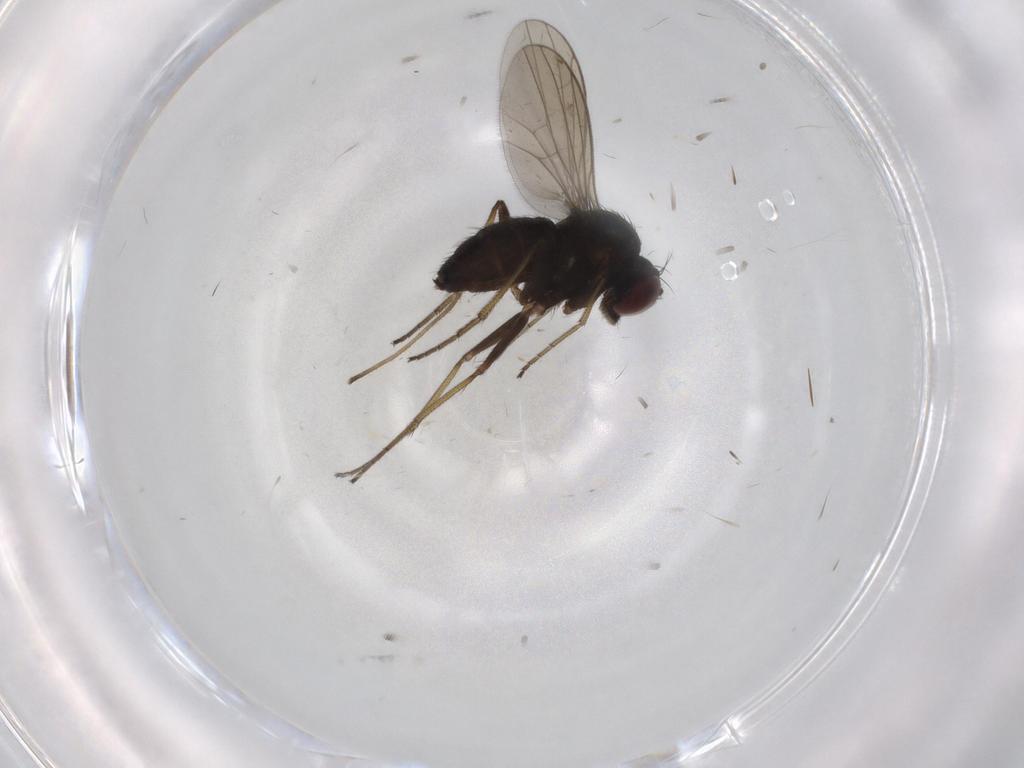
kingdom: Animalia
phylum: Arthropoda
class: Insecta
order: Diptera
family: Dolichopodidae
